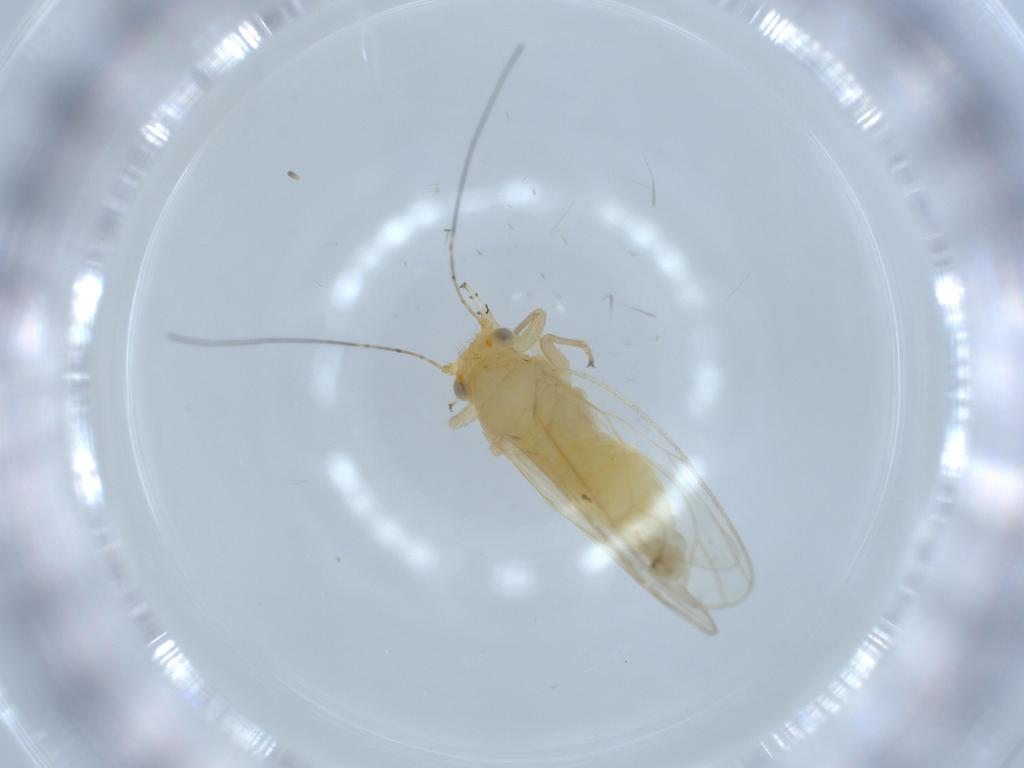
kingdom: Animalia
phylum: Arthropoda
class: Insecta
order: Hemiptera
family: Psyllidae
